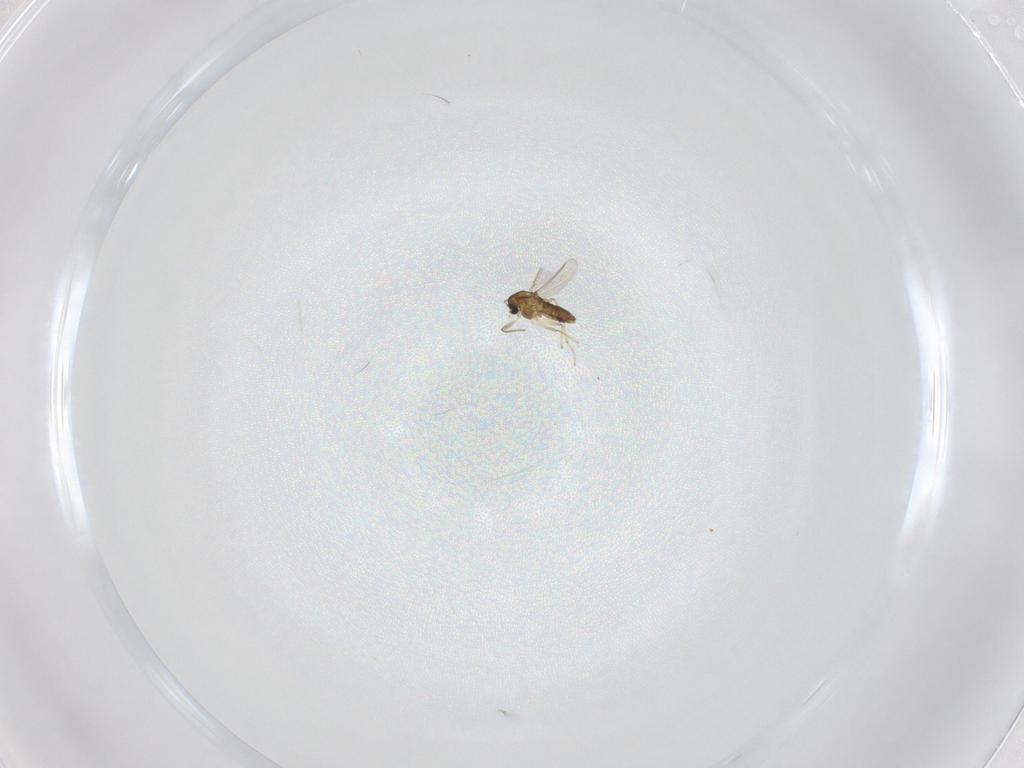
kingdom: Animalia
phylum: Arthropoda
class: Insecta
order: Diptera
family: Chironomidae
